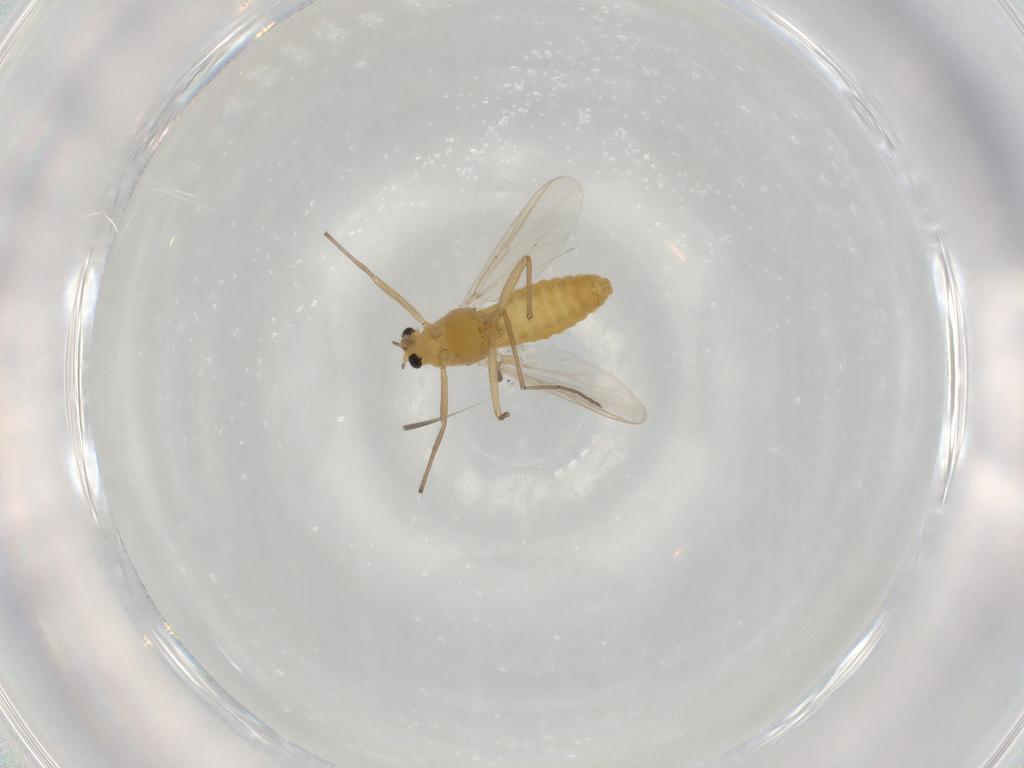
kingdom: Animalia
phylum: Arthropoda
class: Insecta
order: Diptera
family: Chironomidae
